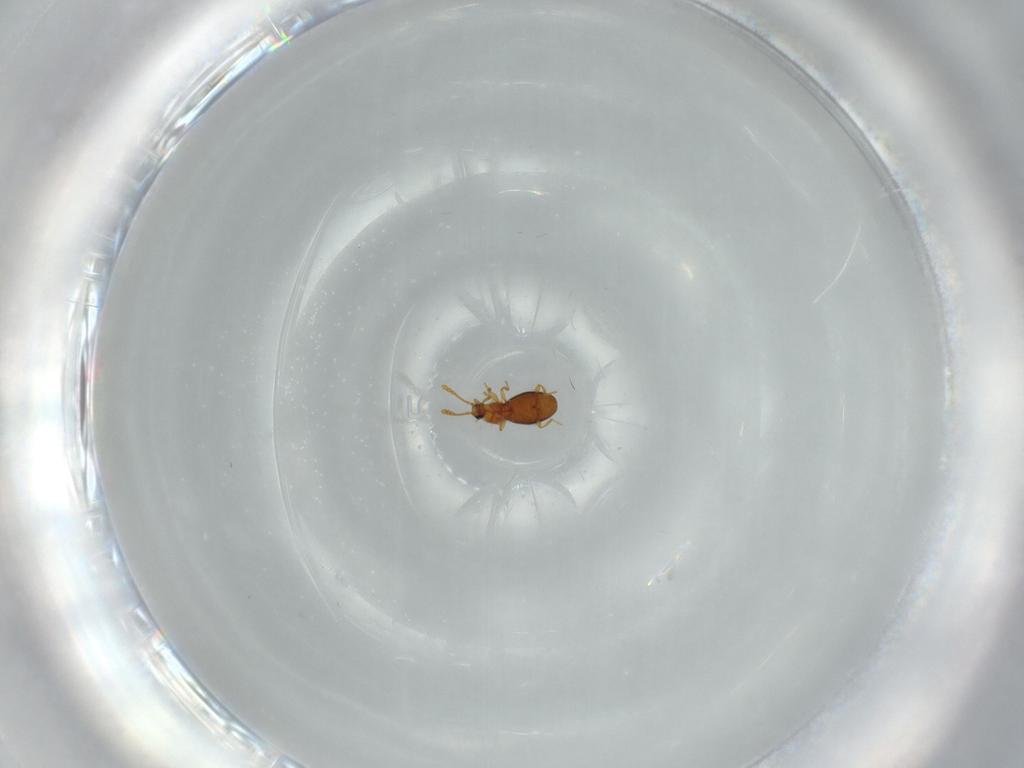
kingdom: Animalia
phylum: Arthropoda
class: Insecta
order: Coleoptera
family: Staphylinidae
